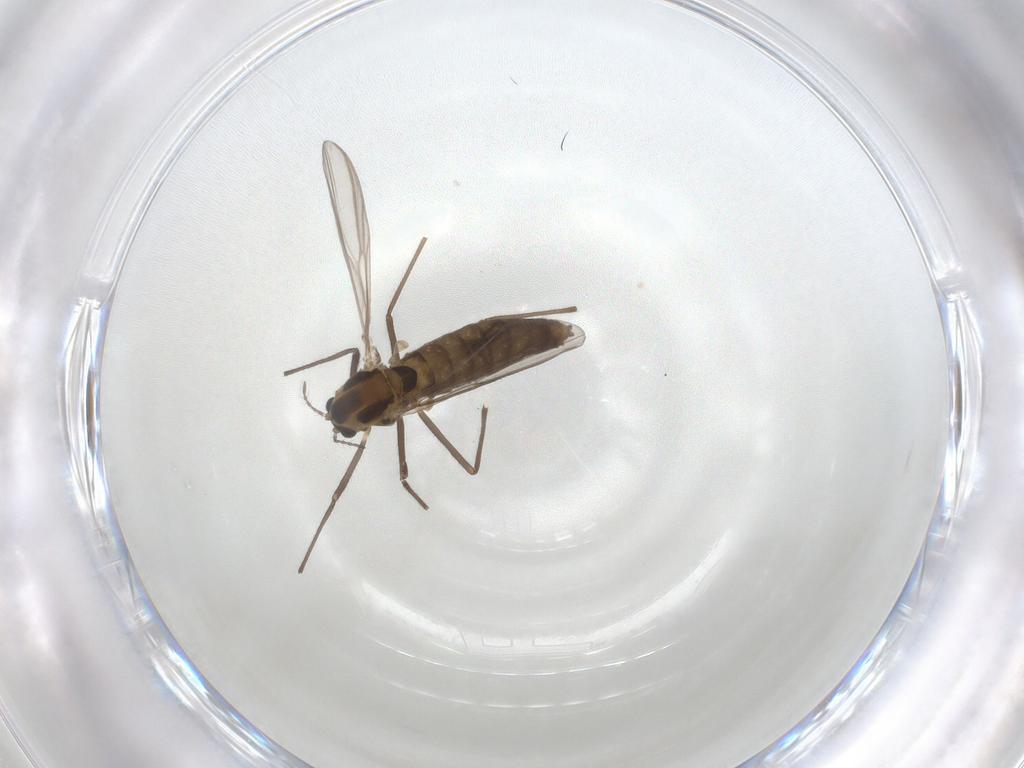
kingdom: Animalia
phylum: Arthropoda
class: Insecta
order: Diptera
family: Chironomidae
